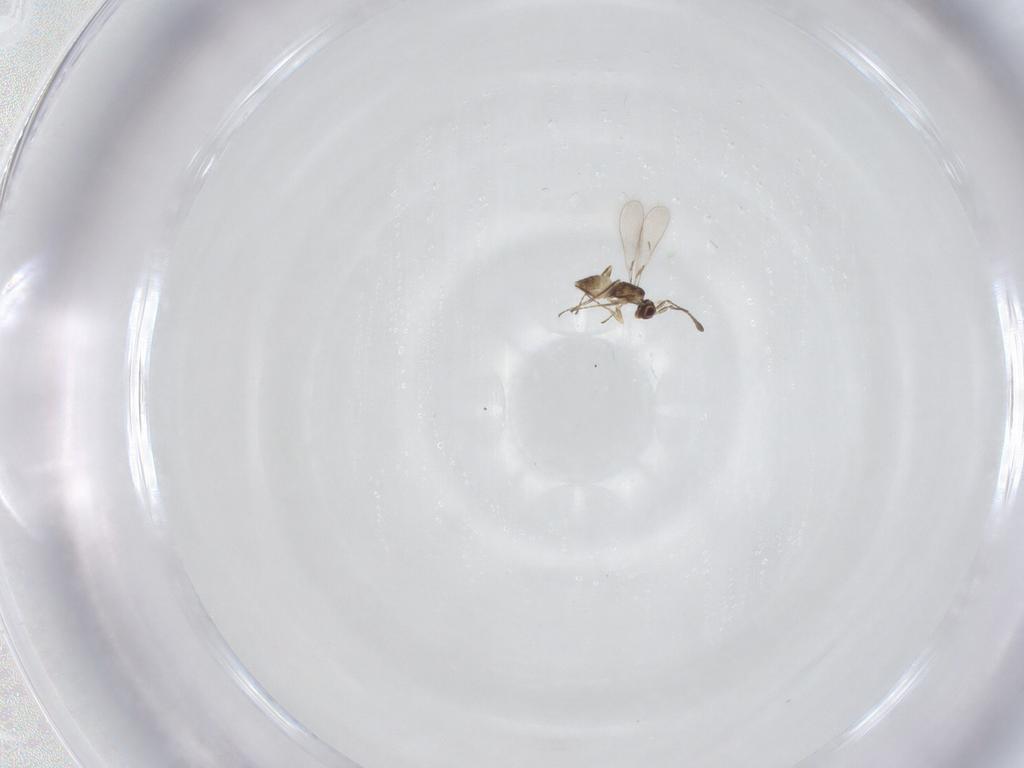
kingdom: Animalia
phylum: Arthropoda
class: Insecta
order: Hymenoptera
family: Mymaridae
